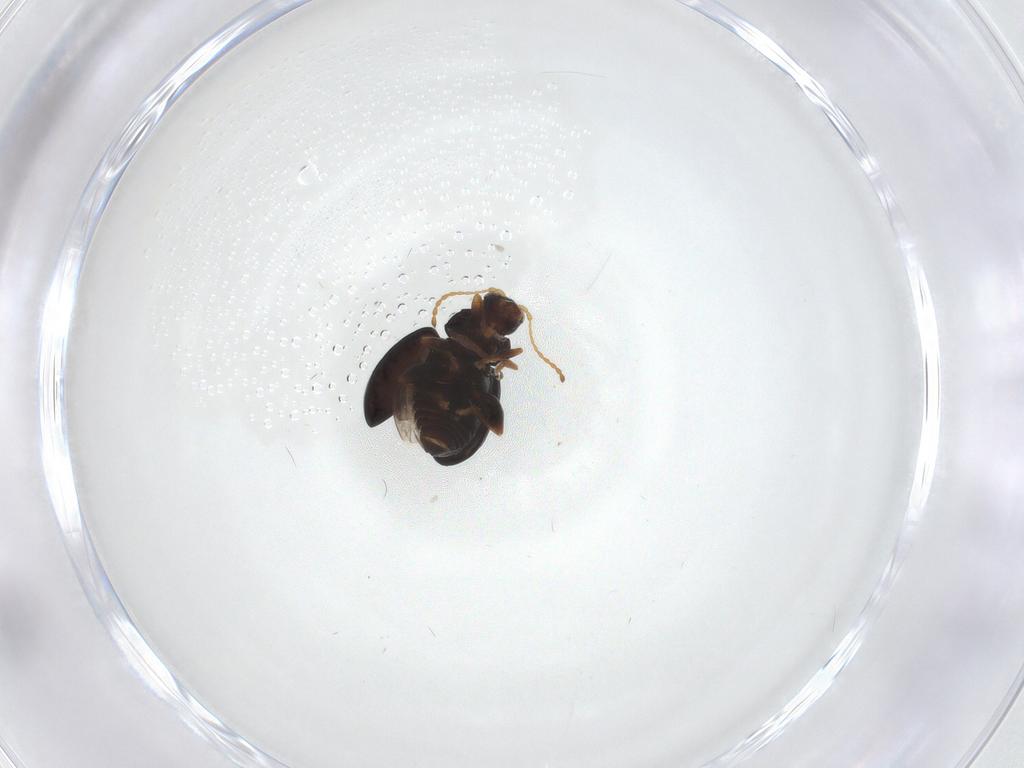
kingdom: Animalia
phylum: Arthropoda
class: Insecta
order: Coleoptera
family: Chrysomelidae
